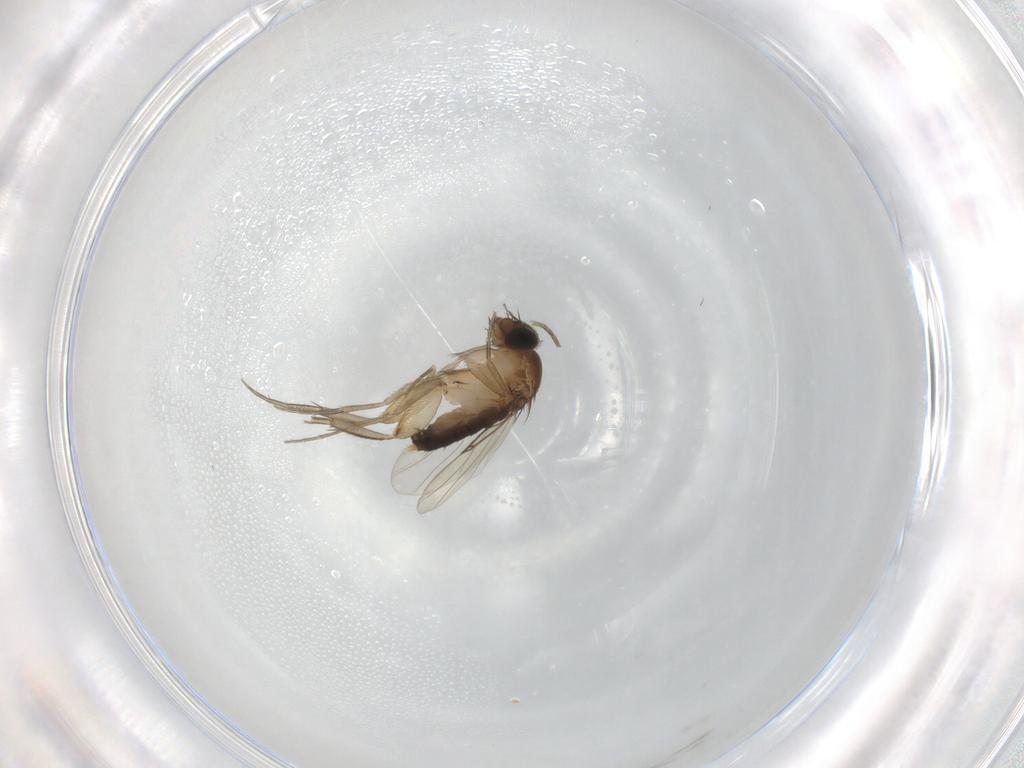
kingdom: Animalia
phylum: Arthropoda
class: Insecta
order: Diptera
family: Phoridae
